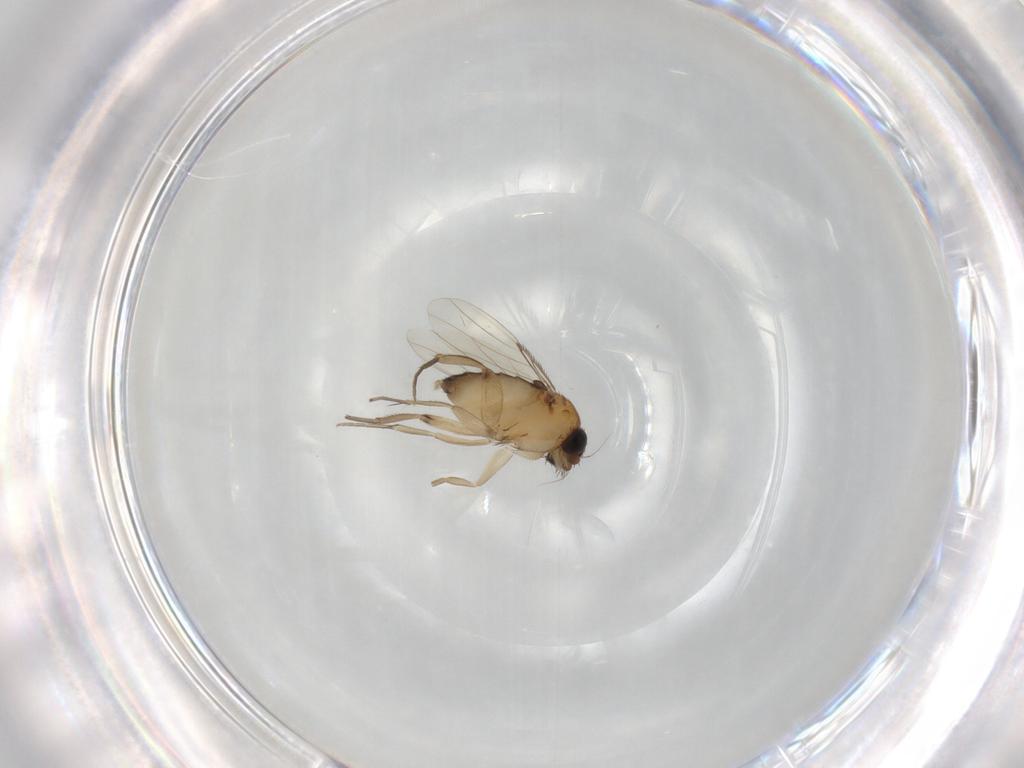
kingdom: Animalia
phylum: Arthropoda
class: Insecta
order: Diptera
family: Phoridae
